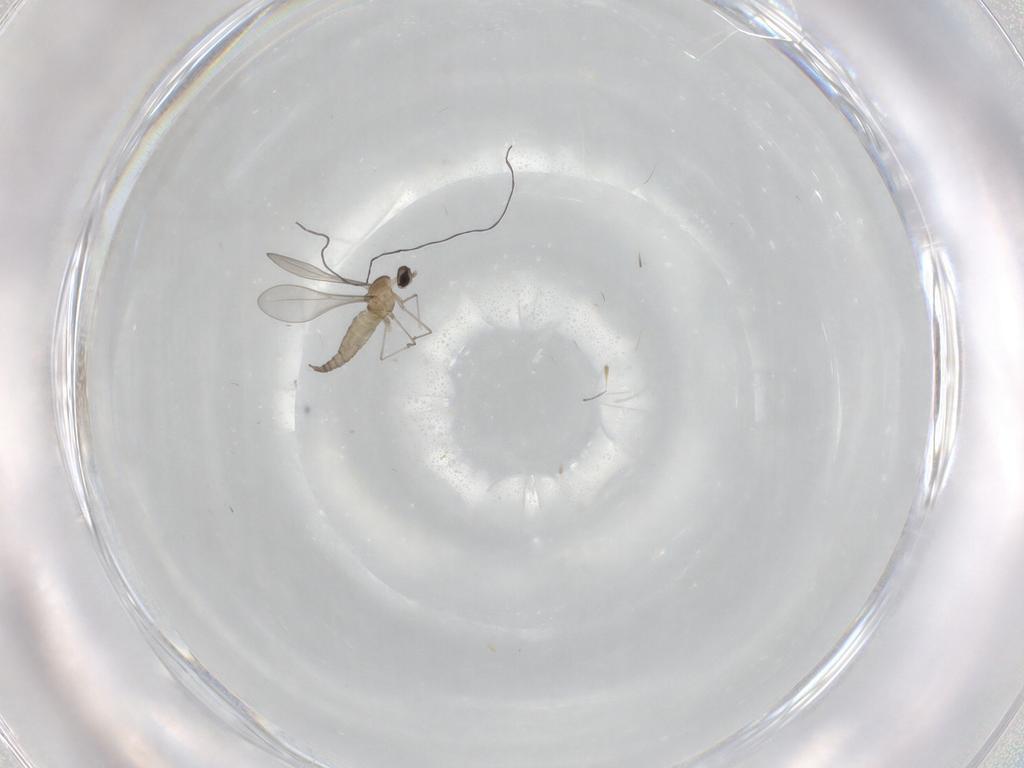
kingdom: Animalia
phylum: Arthropoda
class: Insecta
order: Diptera
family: Cecidomyiidae
